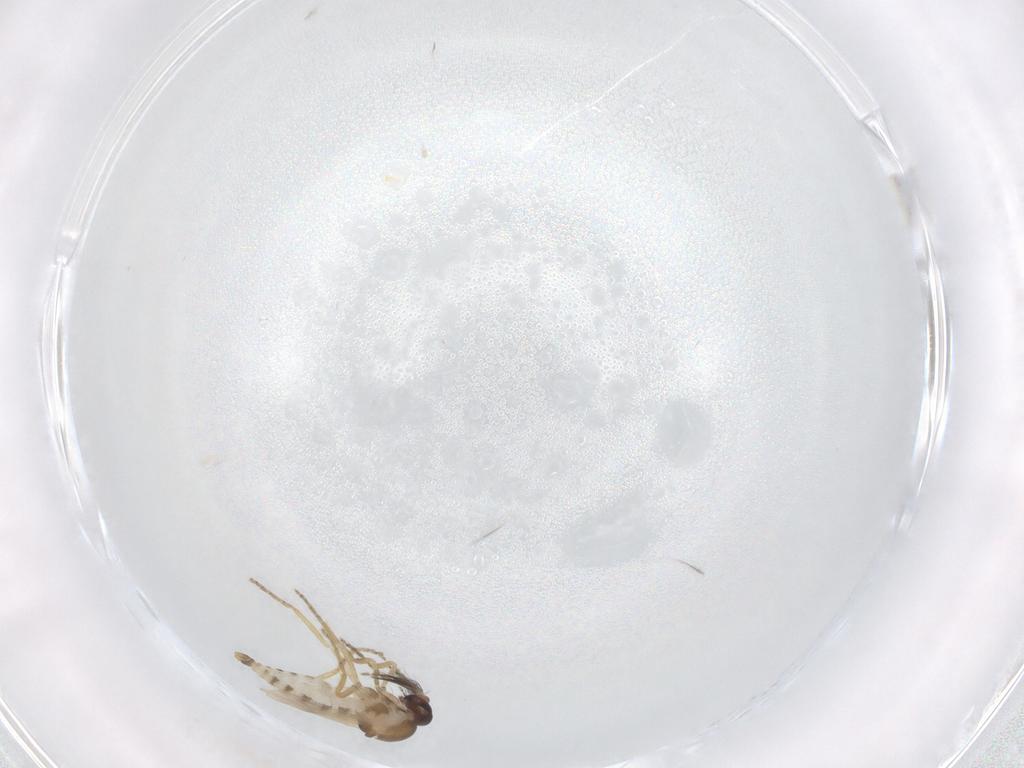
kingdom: Animalia
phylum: Arthropoda
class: Insecta
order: Diptera
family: Ceratopogonidae
